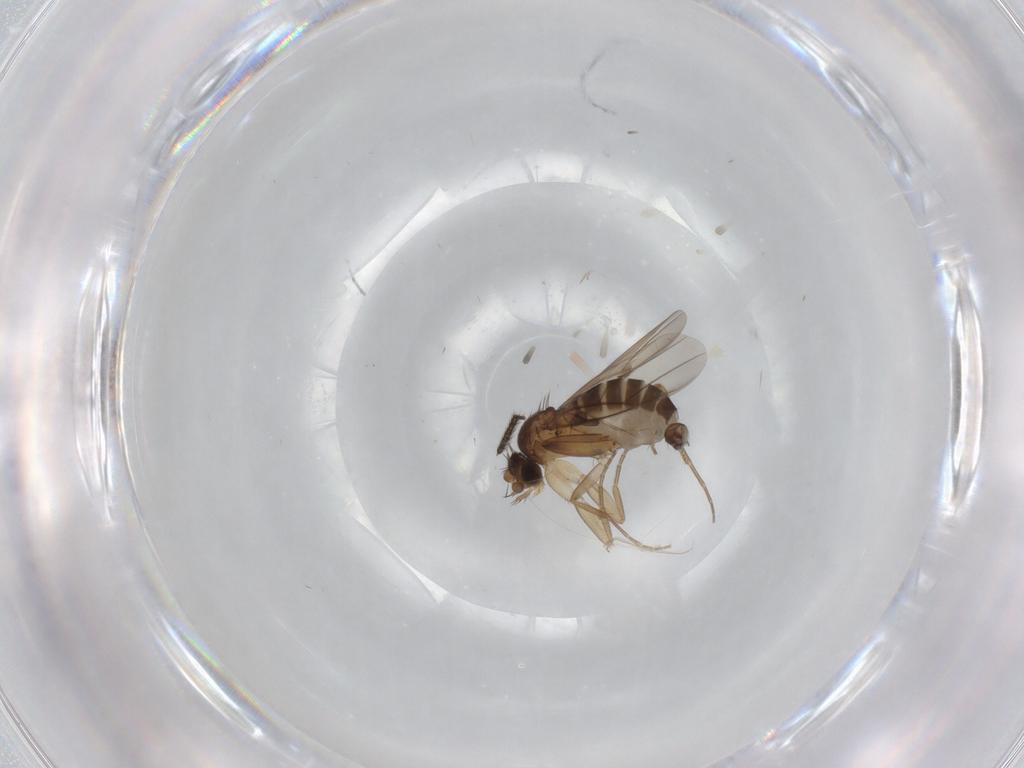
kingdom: Animalia
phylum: Arthropoda
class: Insecta
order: Diptera
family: Phoridae
